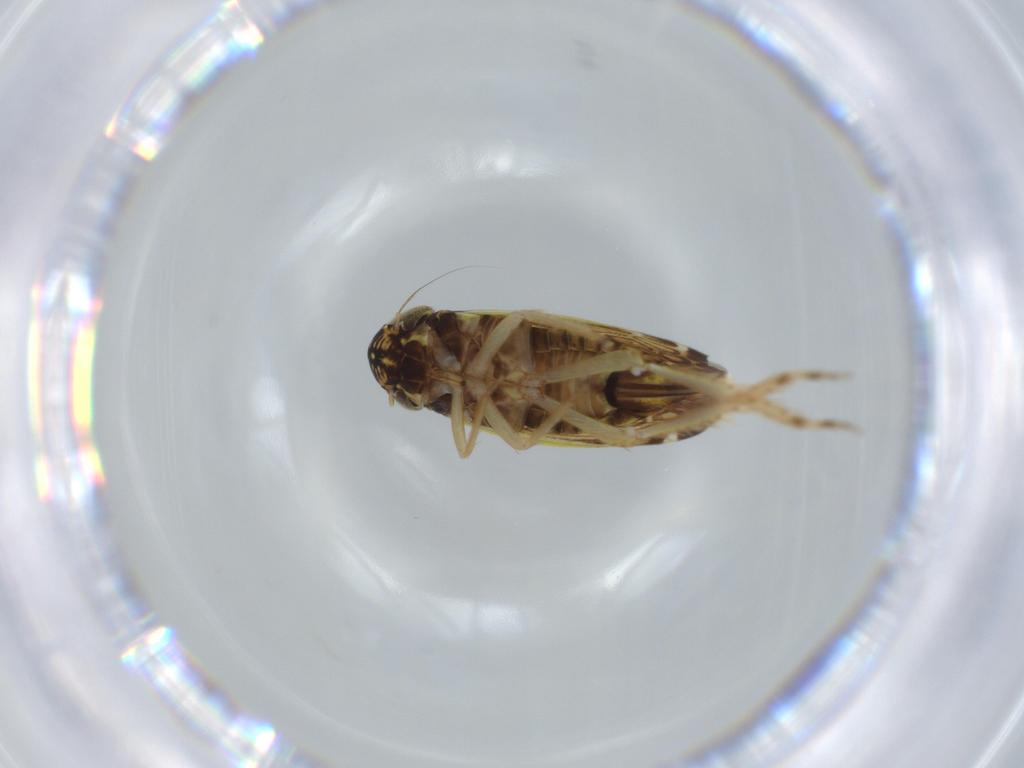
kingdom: Animalia
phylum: Arthropoda
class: Insecta
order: Hemiptera
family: Cicadellidae
